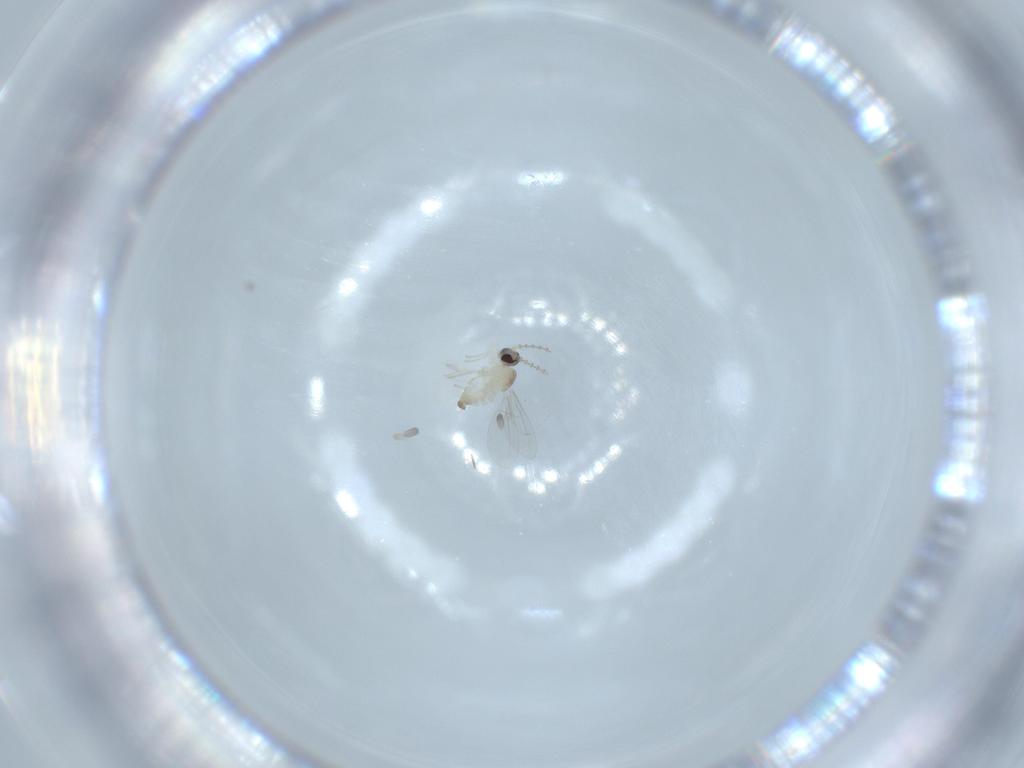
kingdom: Animalia
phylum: Arthropoda
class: Insecta
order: Diptera
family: Cecidomyiidae
